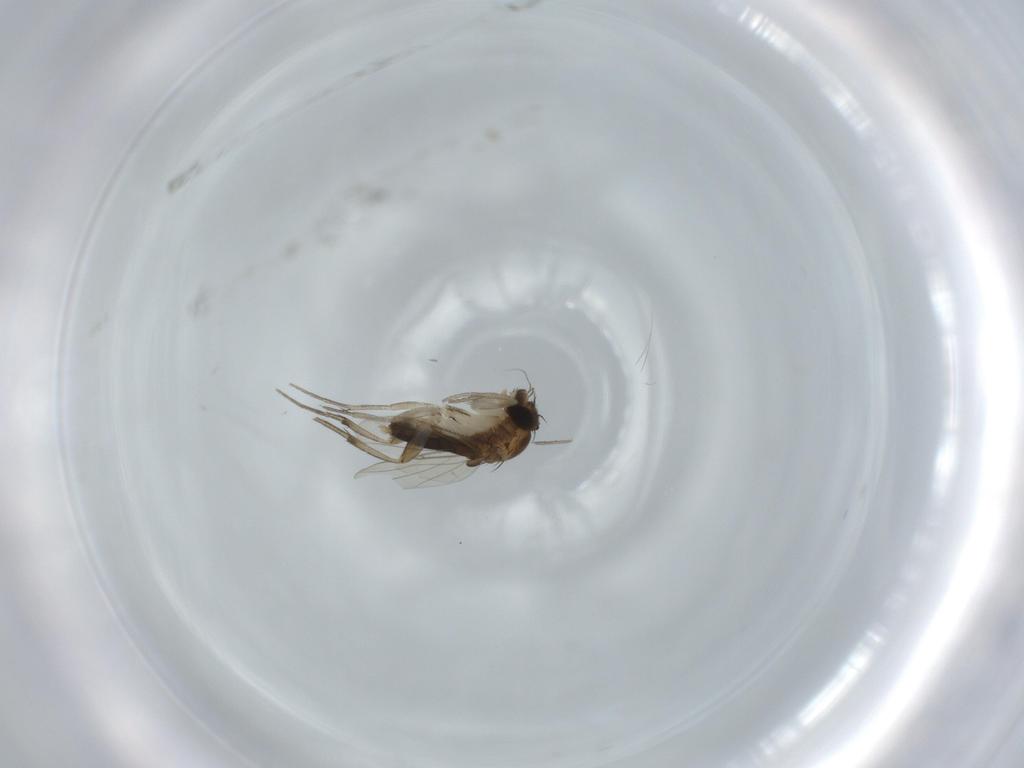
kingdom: Animalia
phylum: Arthropoda
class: Insecta
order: Diptera
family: Phoridae
